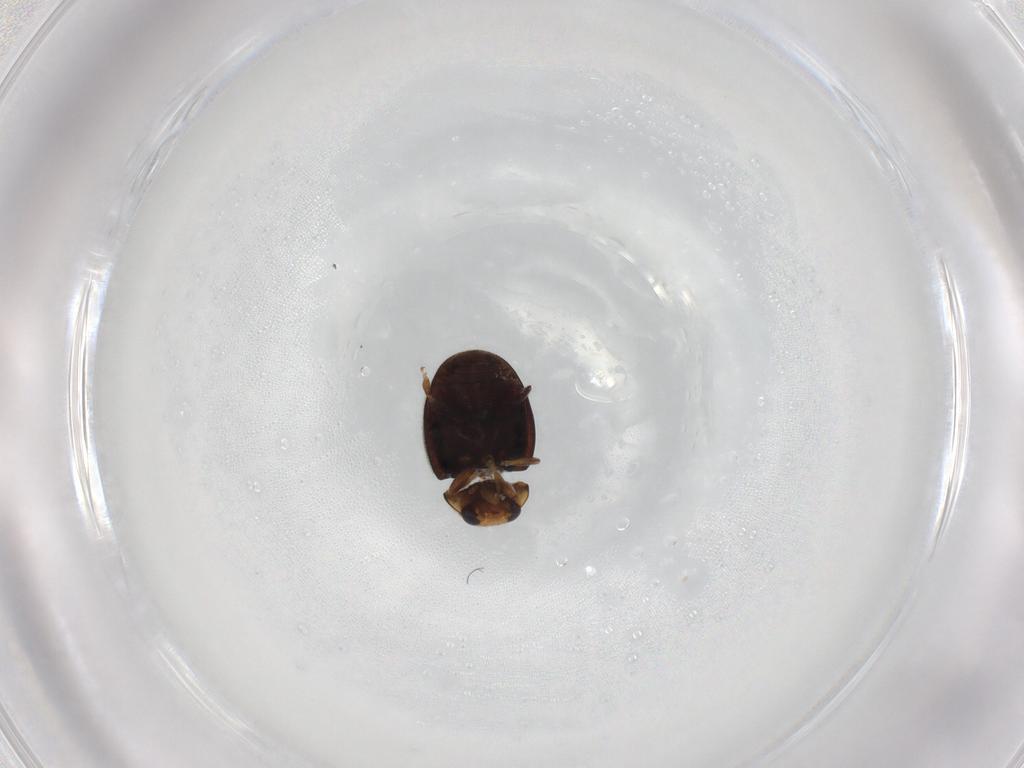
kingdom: Animalia
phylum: Arthropoda
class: Insecta
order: Coleoptera
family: Coccinellidae
